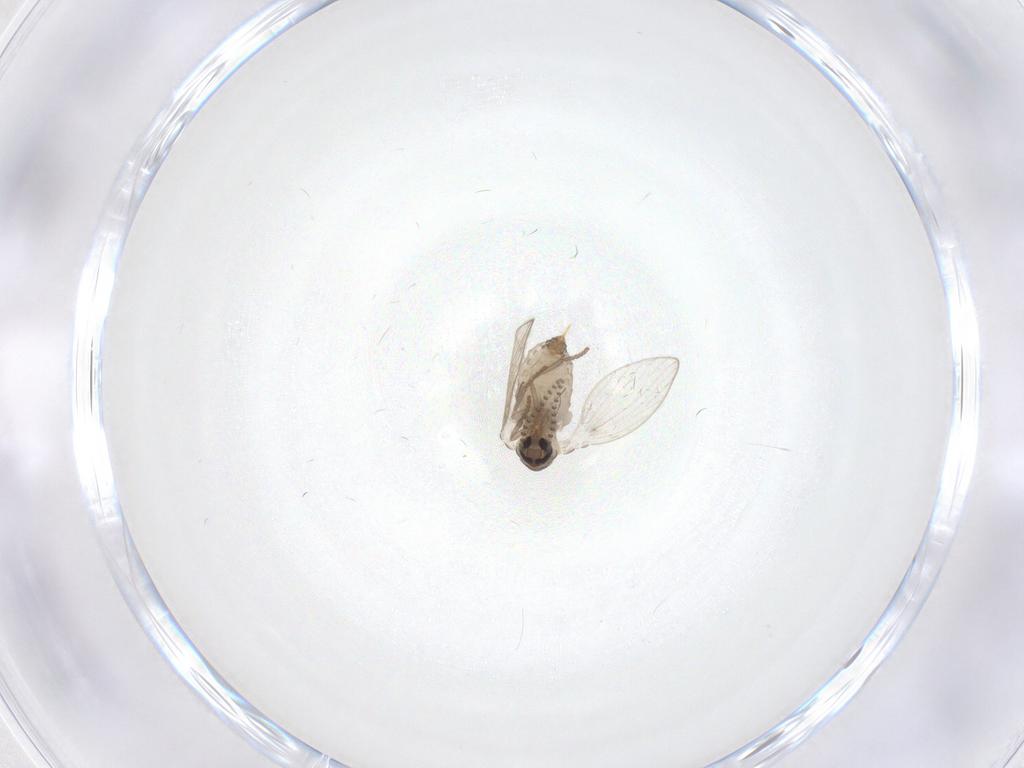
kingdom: Animalia
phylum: Arthropoda
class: Insecta
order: Diptera
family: Psychodidae
